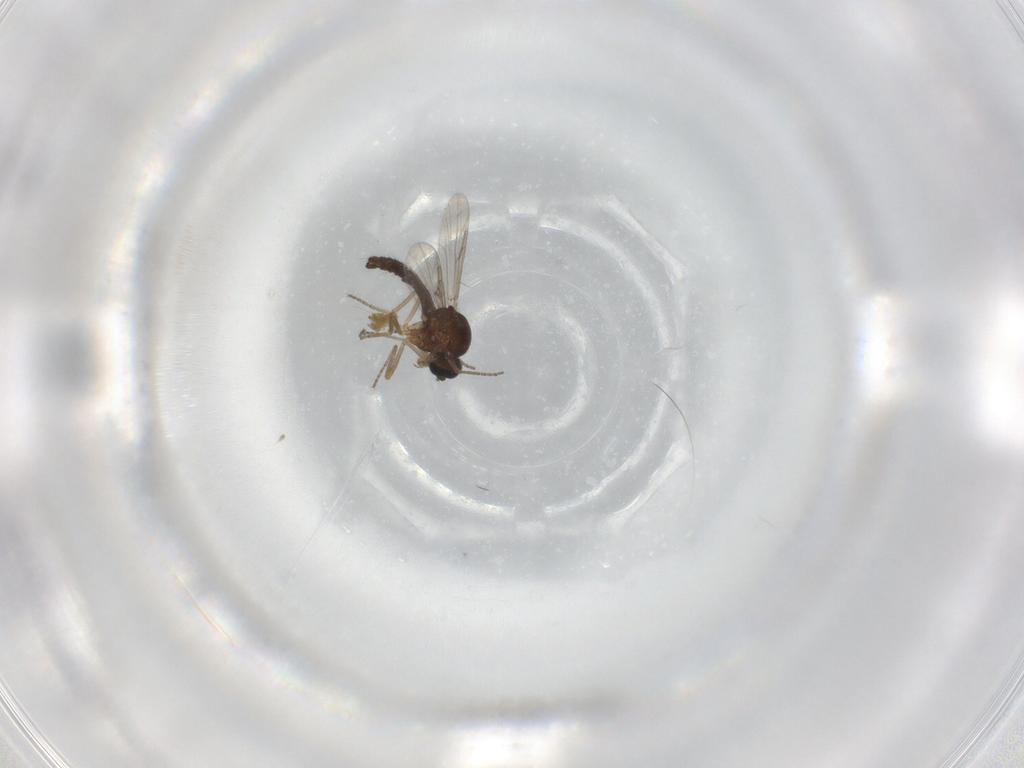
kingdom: Animalia
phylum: Arthropoda
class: Insecta
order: Diptera
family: Ceratopogonidae
